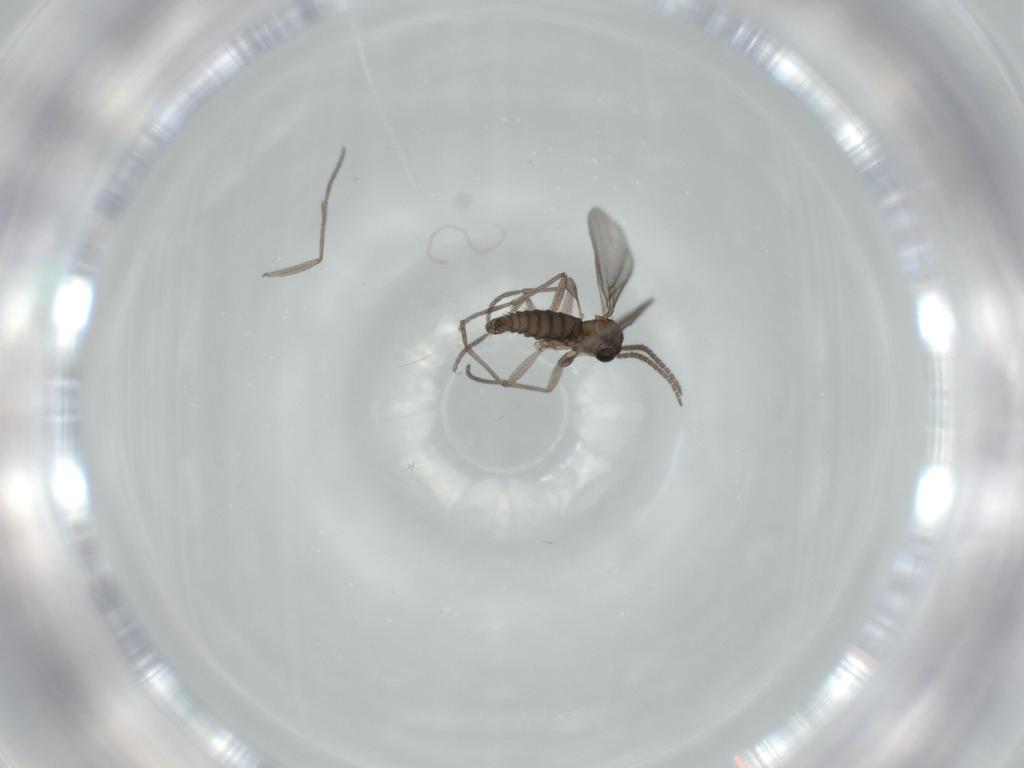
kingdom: Animalia
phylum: Arthropoda
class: Insecta
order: Diptera
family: Sciaridae
